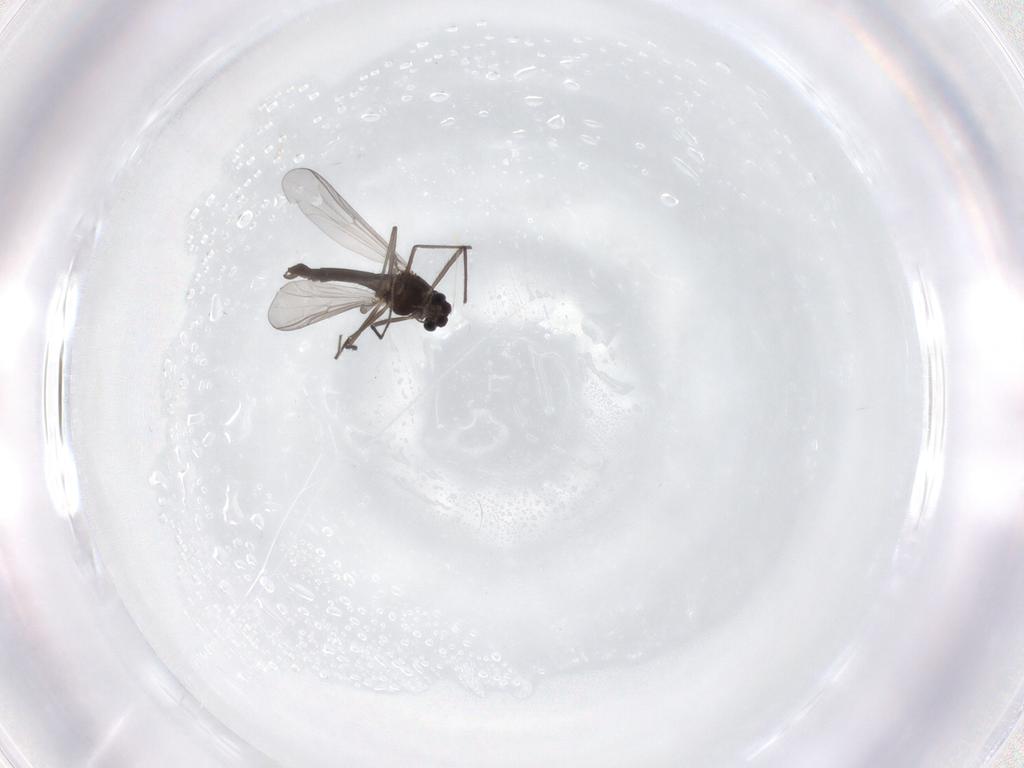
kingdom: Animalia
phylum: Arthropoda
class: Insecta
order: Diptera
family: Chironomidae
